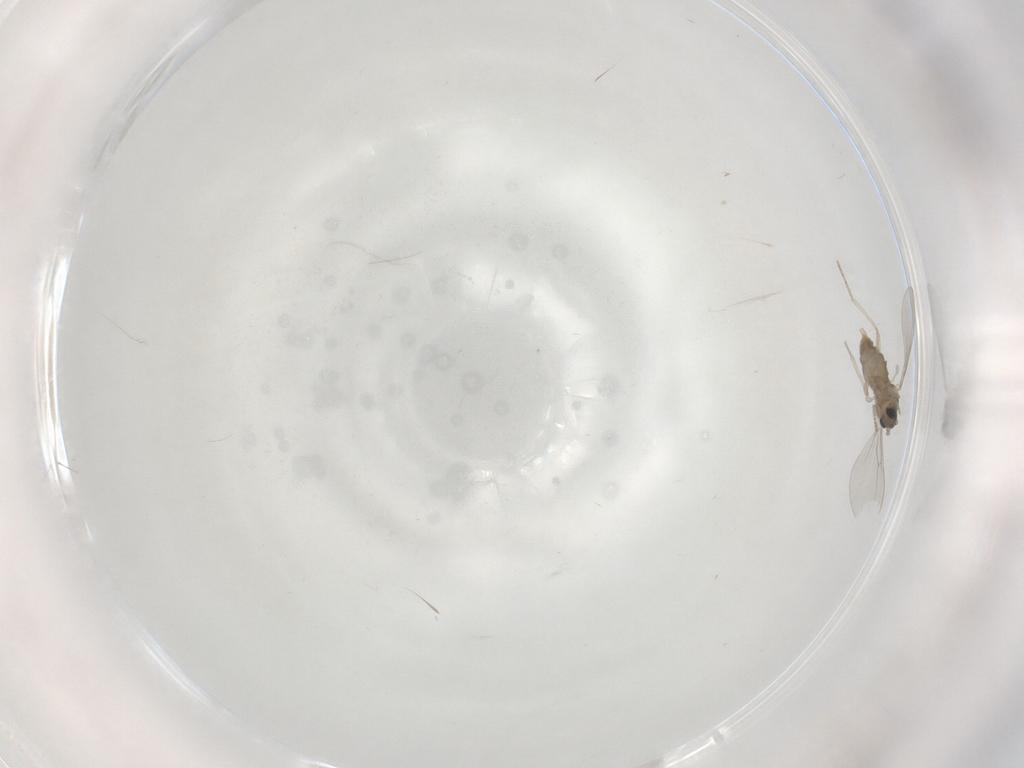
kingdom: Animalia
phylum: Arthropoda
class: Insecta
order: Diptera
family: Cecidomyiidae
